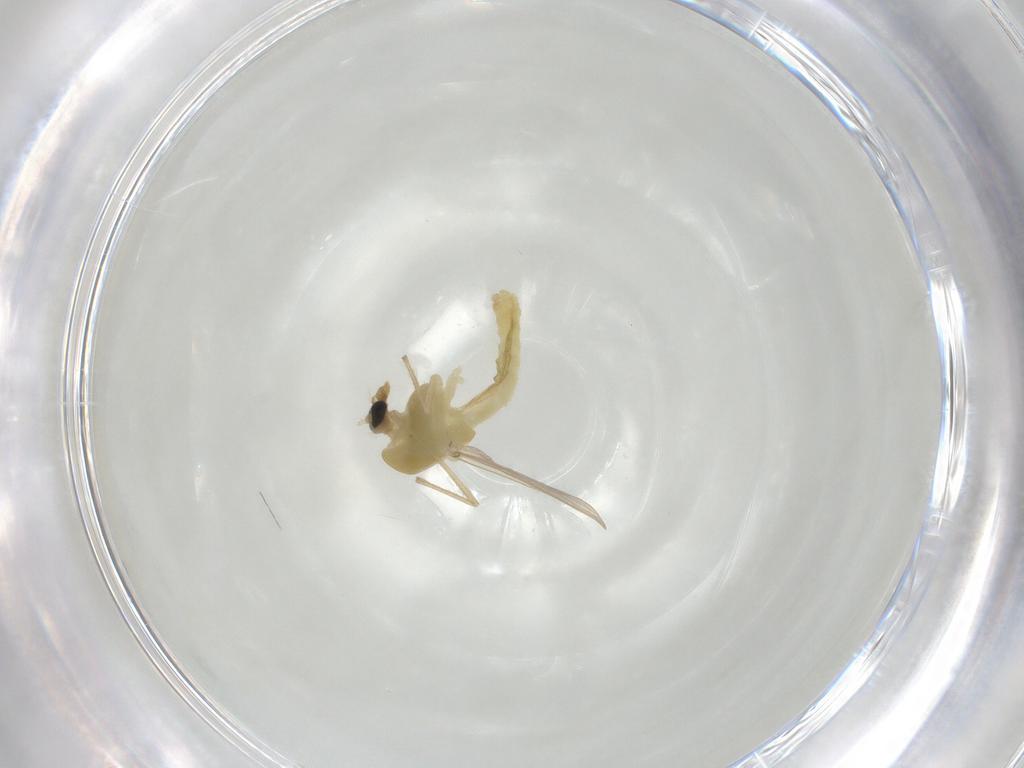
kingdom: Animalia
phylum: Arthropoda
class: Insecta
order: Diptera
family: Chironomidae
